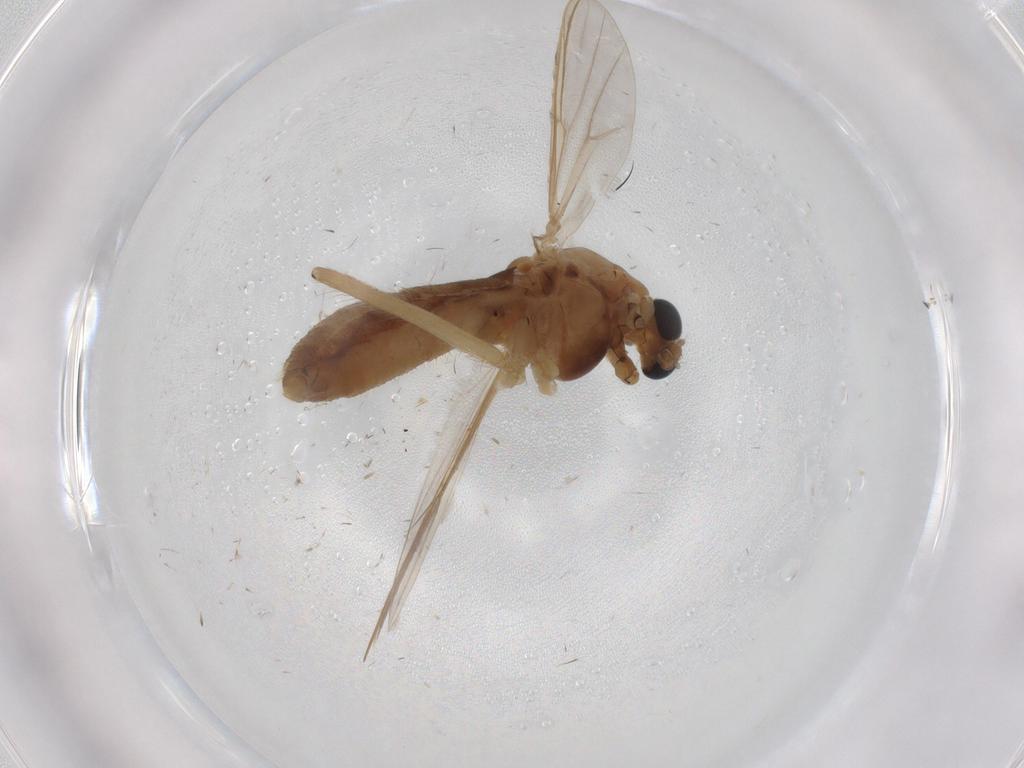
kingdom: Animalia
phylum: Arthropoda
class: Insecta
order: Diptera
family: Chironomidae
